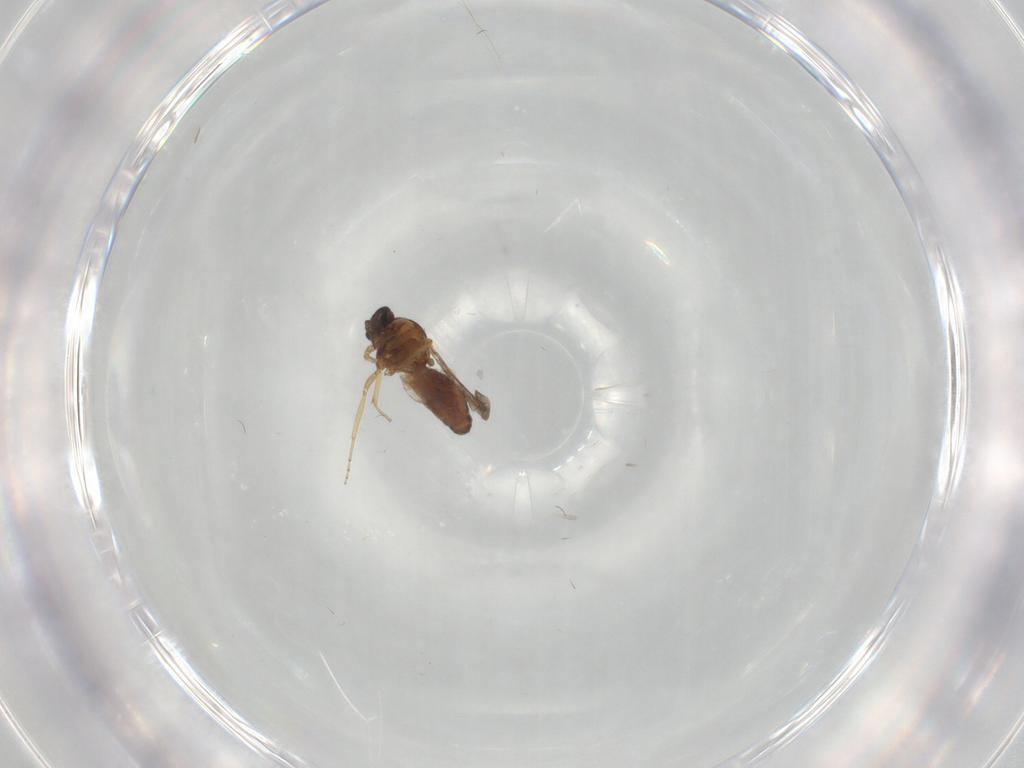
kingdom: Animalia
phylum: Arthropoda
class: Insecta
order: Diptera
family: Cecidomyiidae
